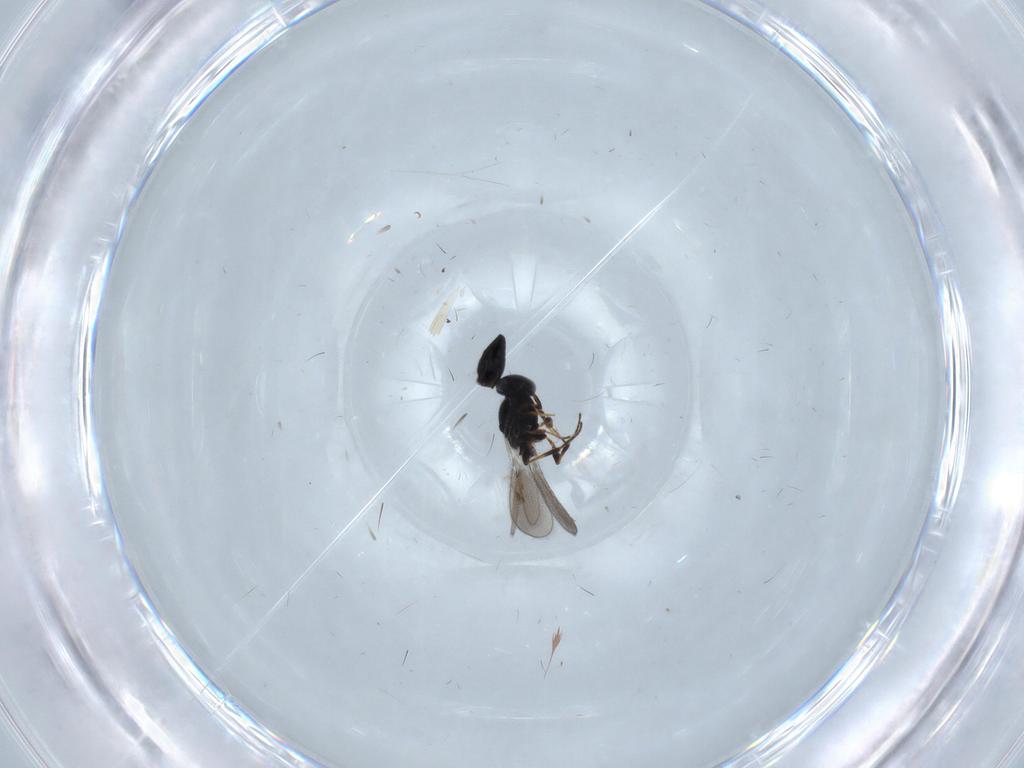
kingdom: Animalia
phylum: Arthropoda
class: Insecta
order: Hymenoptera
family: Platygastridae
